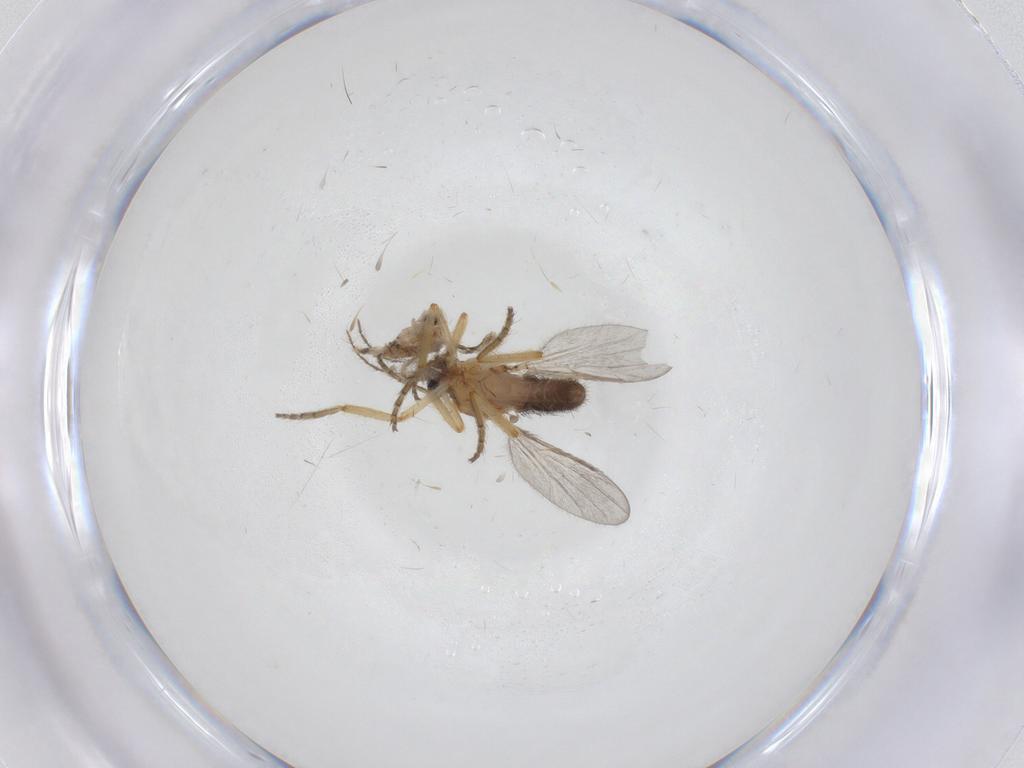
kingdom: Animalia
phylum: Arthropoda
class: Insecta
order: Diptera
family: Ceratopogonidae
